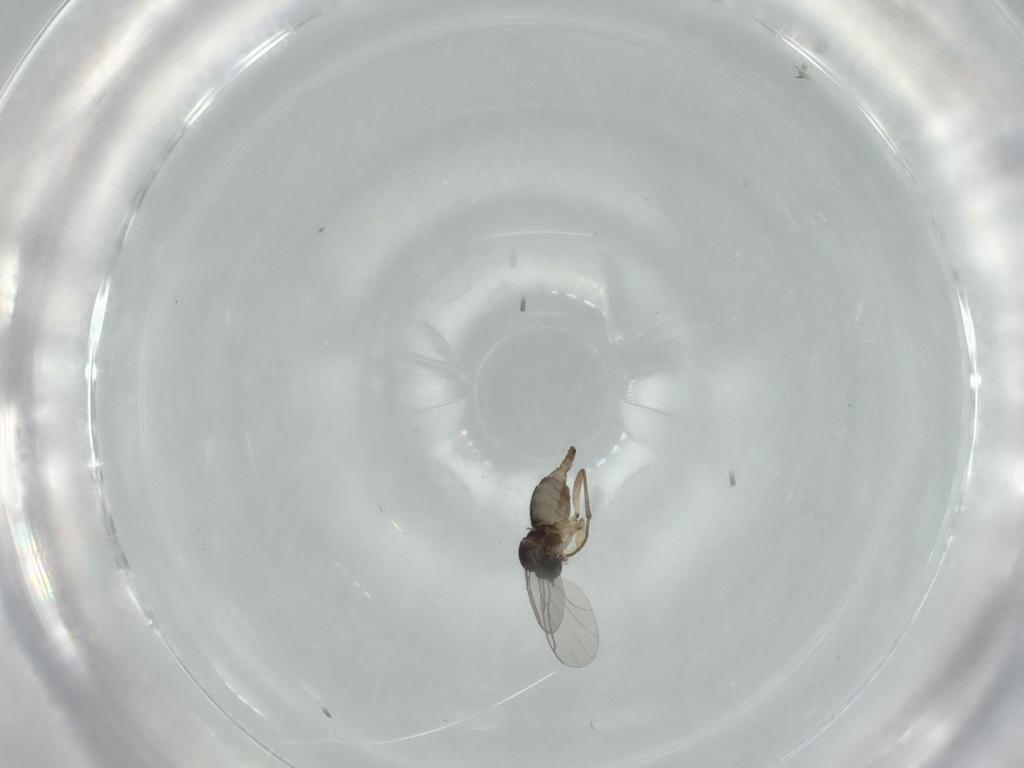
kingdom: Animalia
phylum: Arthropoda
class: Insecta
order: Diptera
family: Sciaridae
